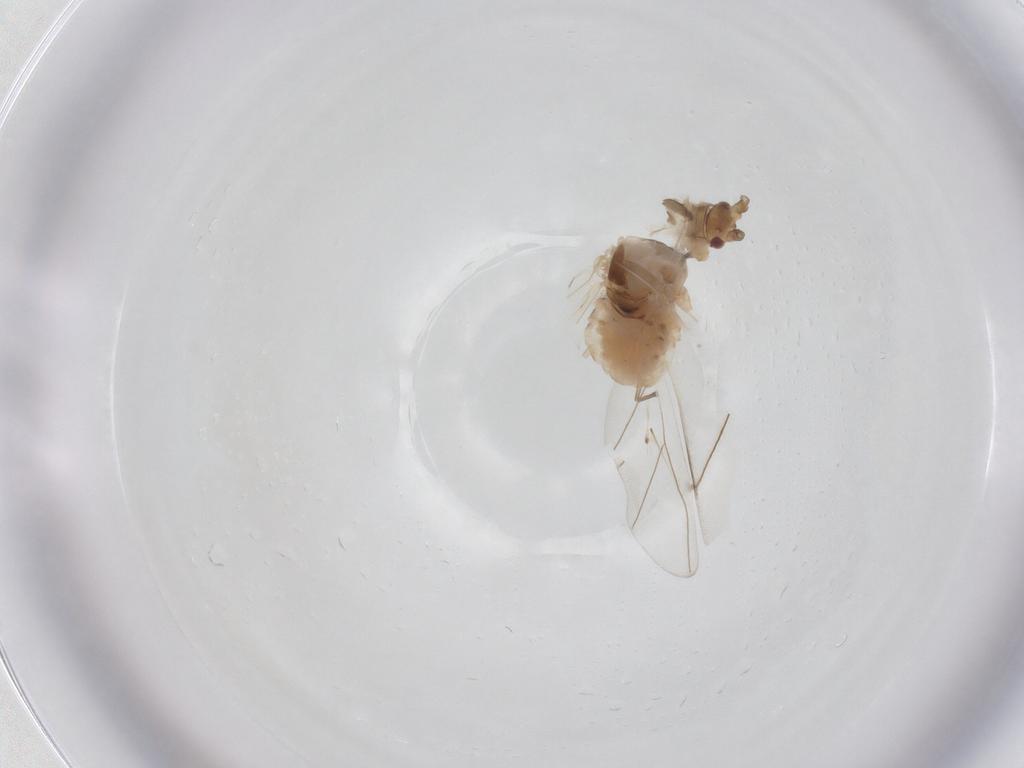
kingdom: Animalia
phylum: Arthropoda
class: Insecta
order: Hemiptera
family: Aphididae
